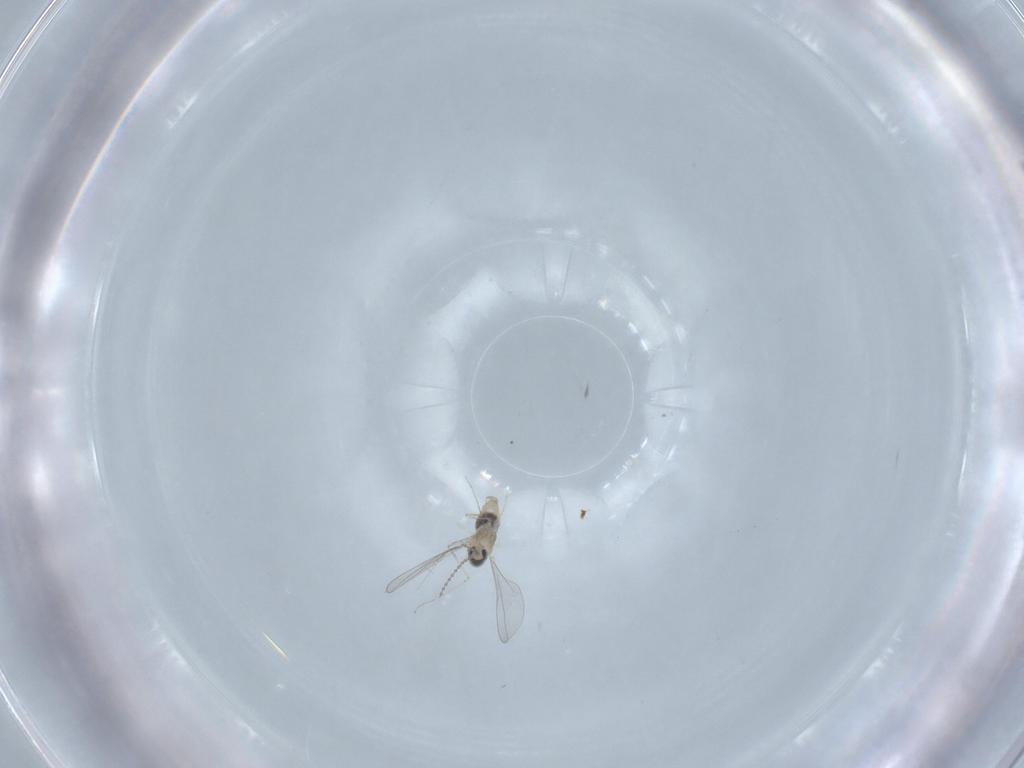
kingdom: Animalia
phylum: Arthropoda
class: Insecta
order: Diptera
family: Cecidomyiidae
